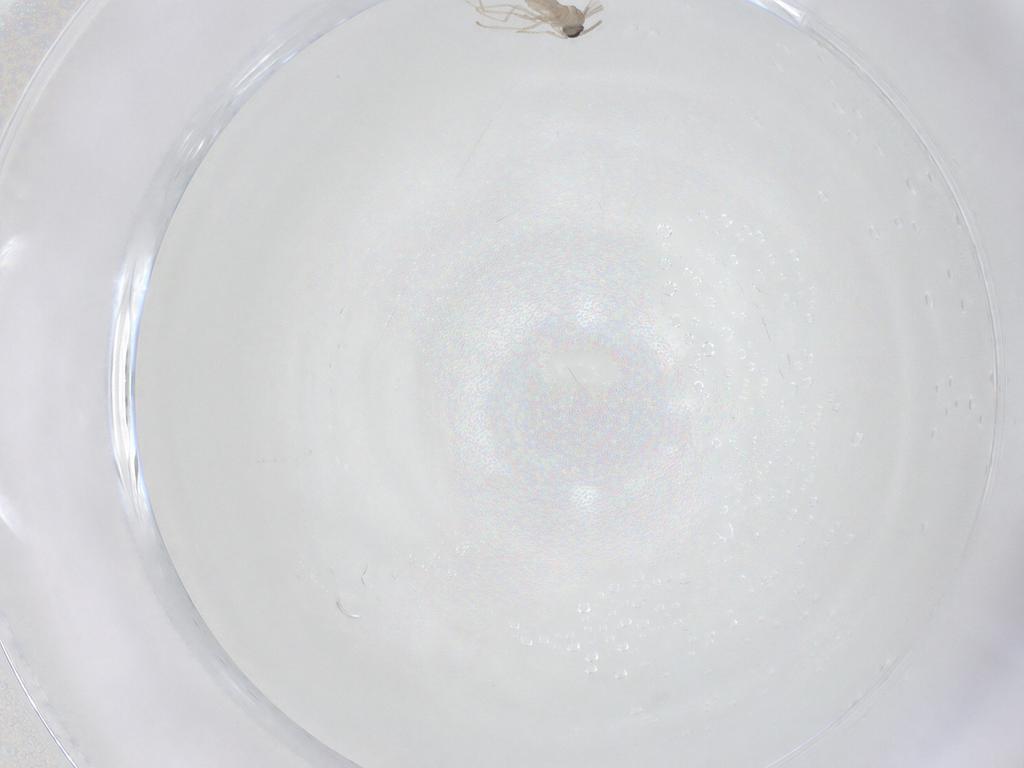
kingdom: Animalia
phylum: Arthropoda
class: Insecta
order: Diptera
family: Cecidomyiidae
